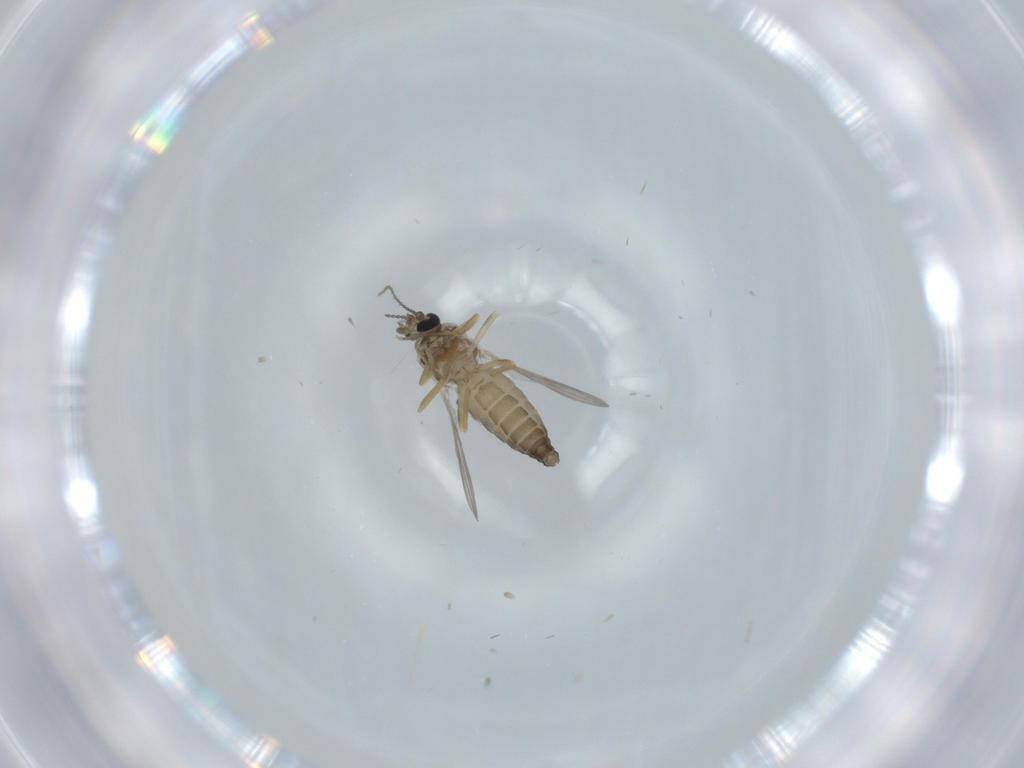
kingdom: Animalia
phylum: Arthropoda
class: Insecta
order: Diptera
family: Ceratopogonidae
